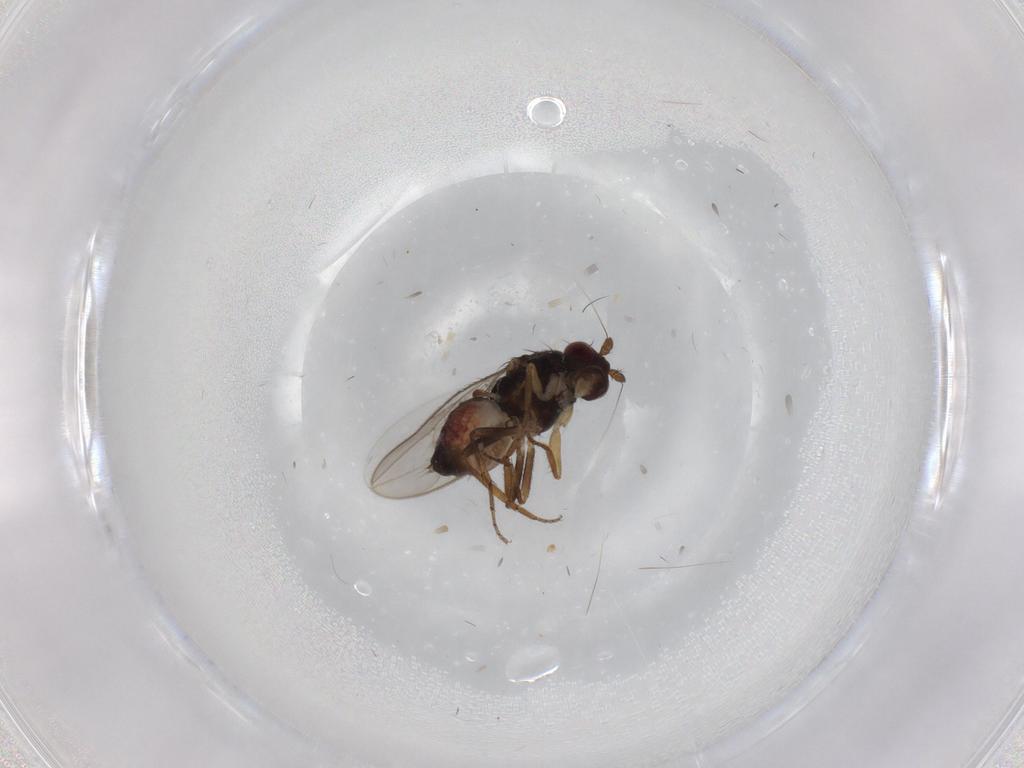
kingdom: Animalia
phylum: Arthropoda
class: Insecta
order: Diptera
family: Sphaeroceridae
